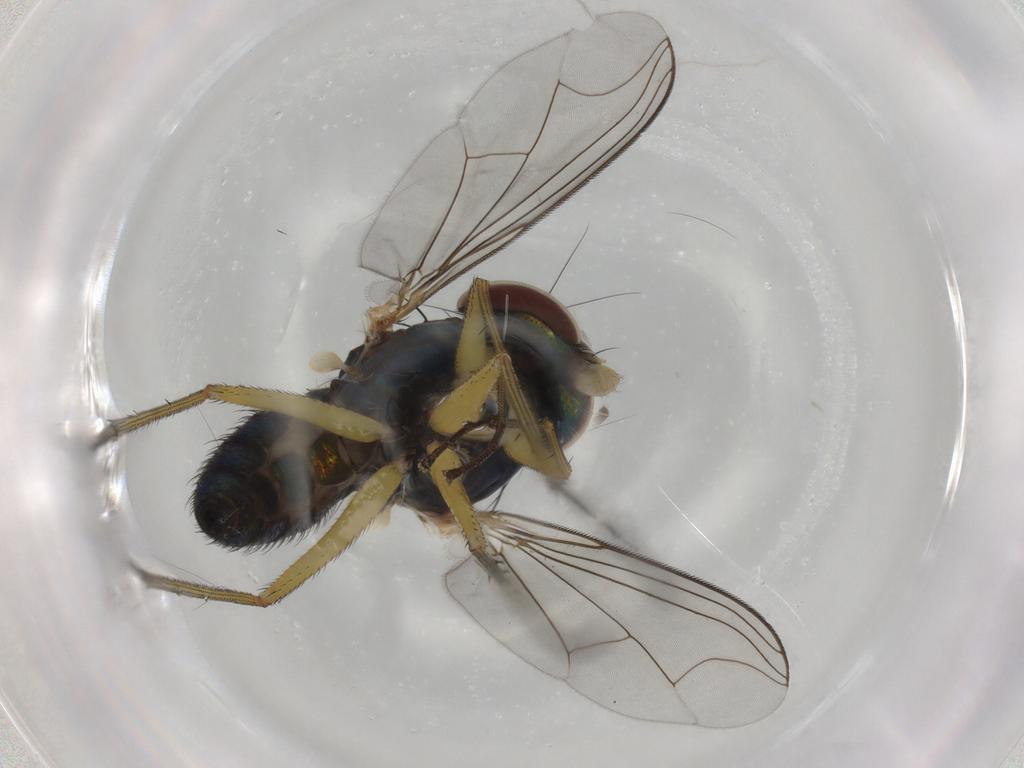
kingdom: Animalia
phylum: Arthropoda
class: Insecta
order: Diptera
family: Dolichopodidae
